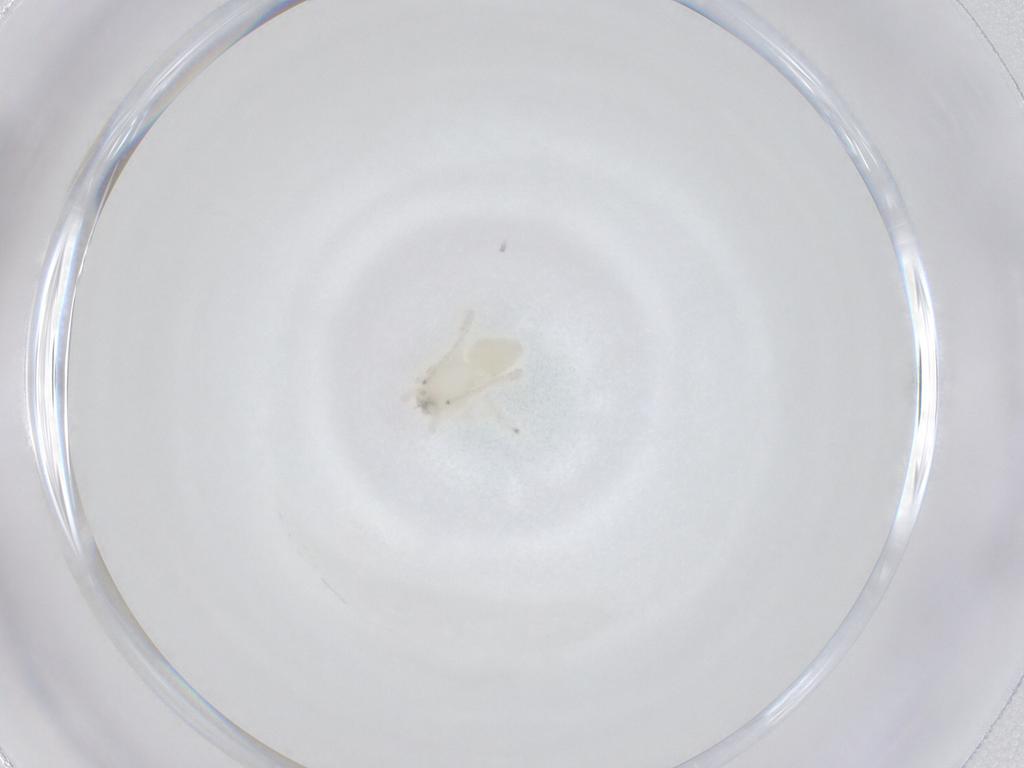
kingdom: Animalia
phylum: Arthropoda
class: Arachnida
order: Araneae
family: Anyphaenidae
